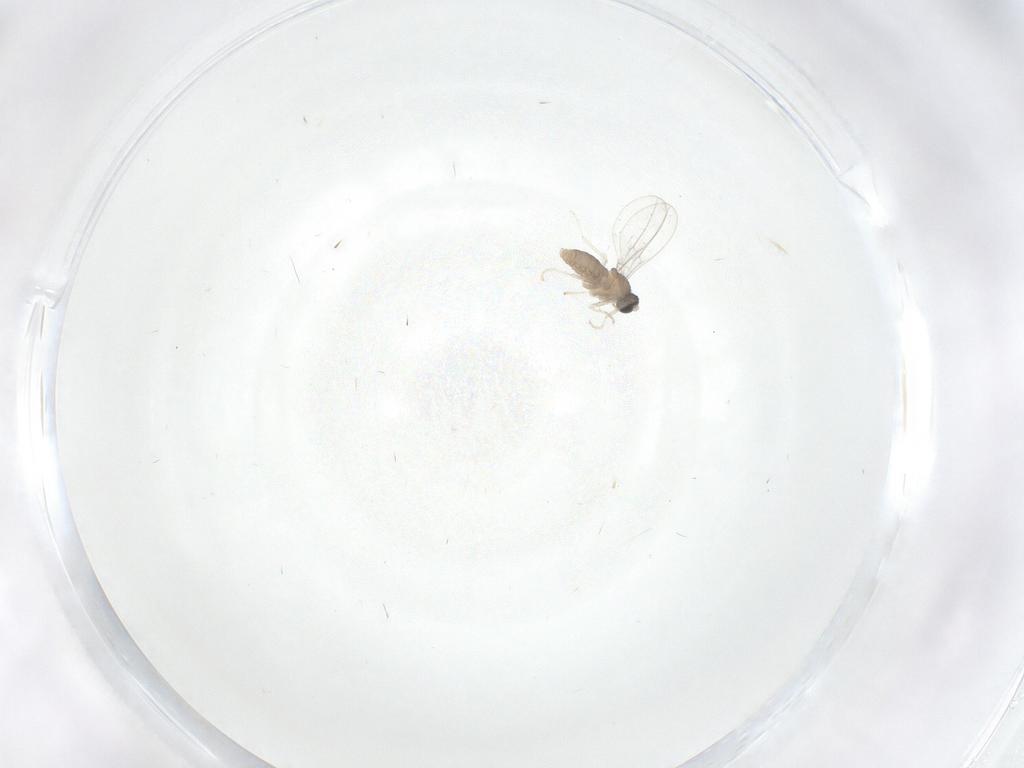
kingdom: Animalia
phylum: Arthropoda
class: Insecta
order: Diptera
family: Cecidomyiidae
